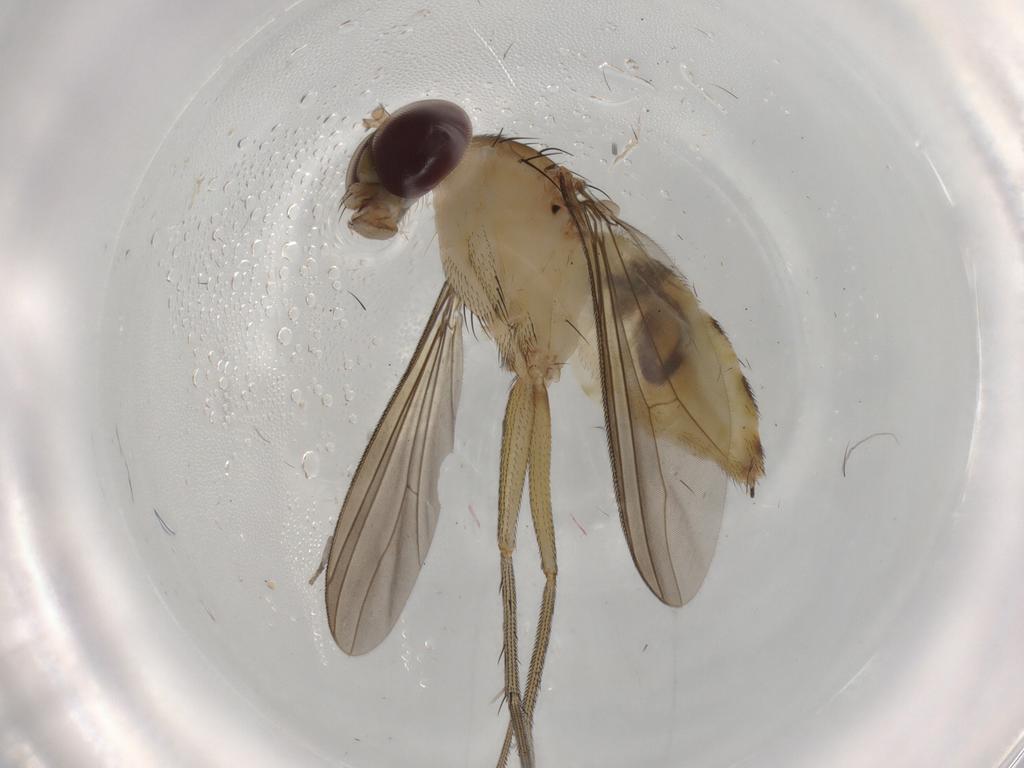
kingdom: Animalia
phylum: Arthropoda
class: Insecta
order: Diptera
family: Dolichopodidae
